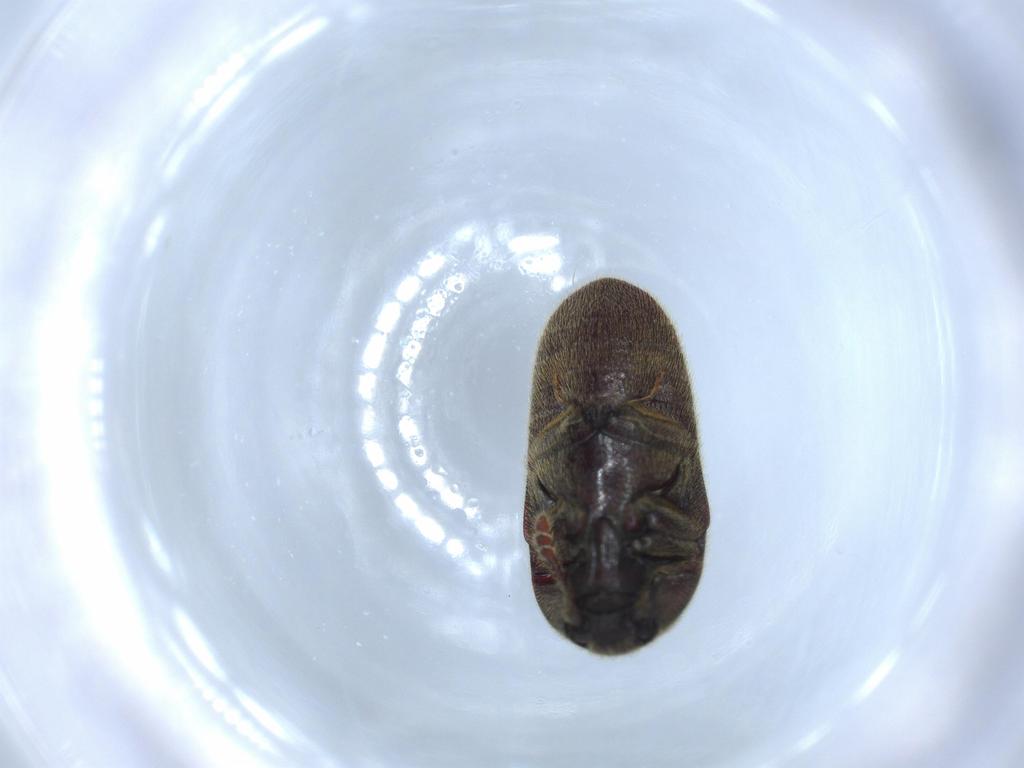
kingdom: Animalia
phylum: Arthropoda
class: Insecta
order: Coleoptera
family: Throscidae
